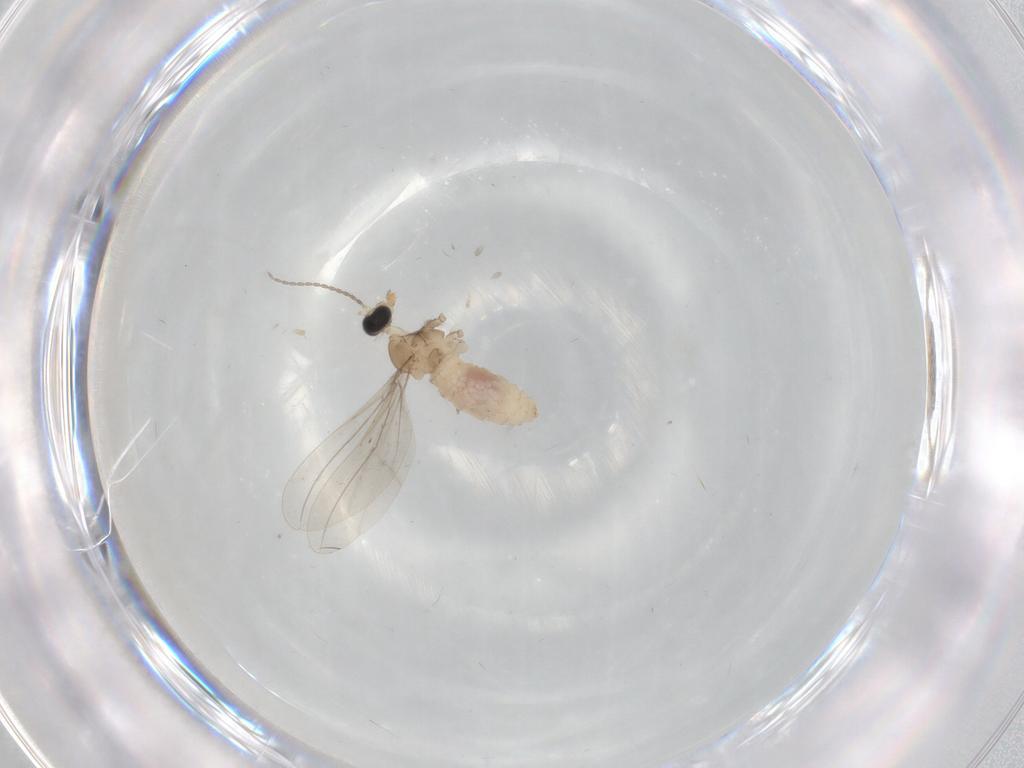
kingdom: Animalia
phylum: Arthropoda
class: Insecta
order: Diptera
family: Cecidomyiidae
